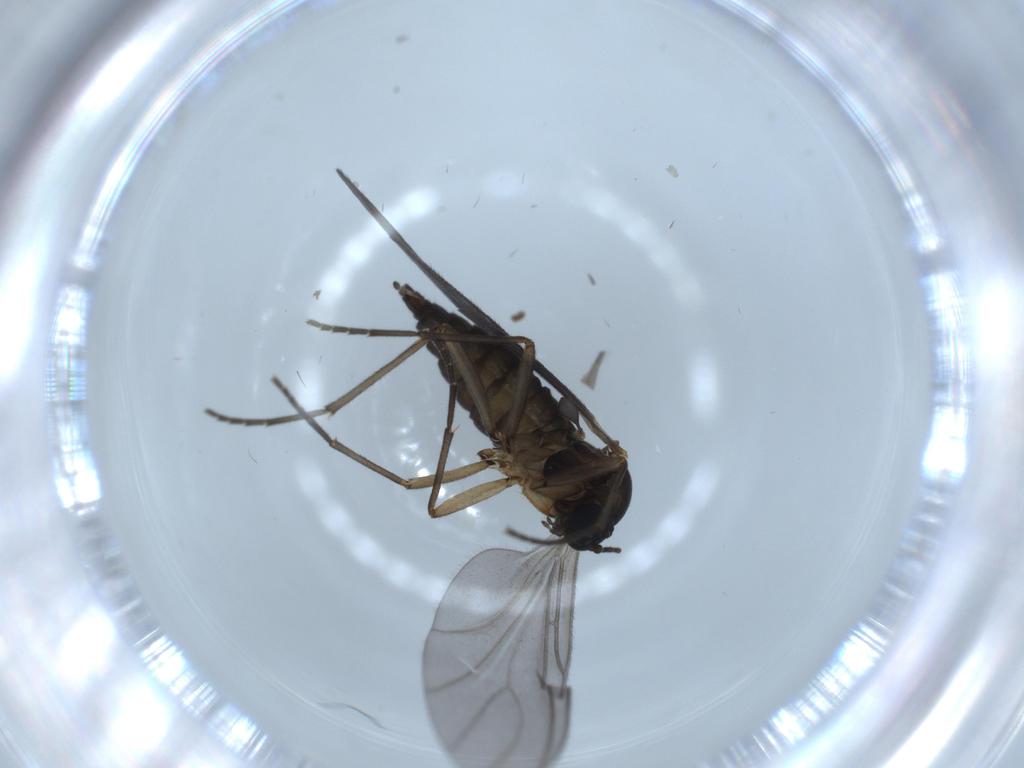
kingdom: Animalia
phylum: Arthropoda
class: Insecta
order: Diptera
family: Sciaridae
